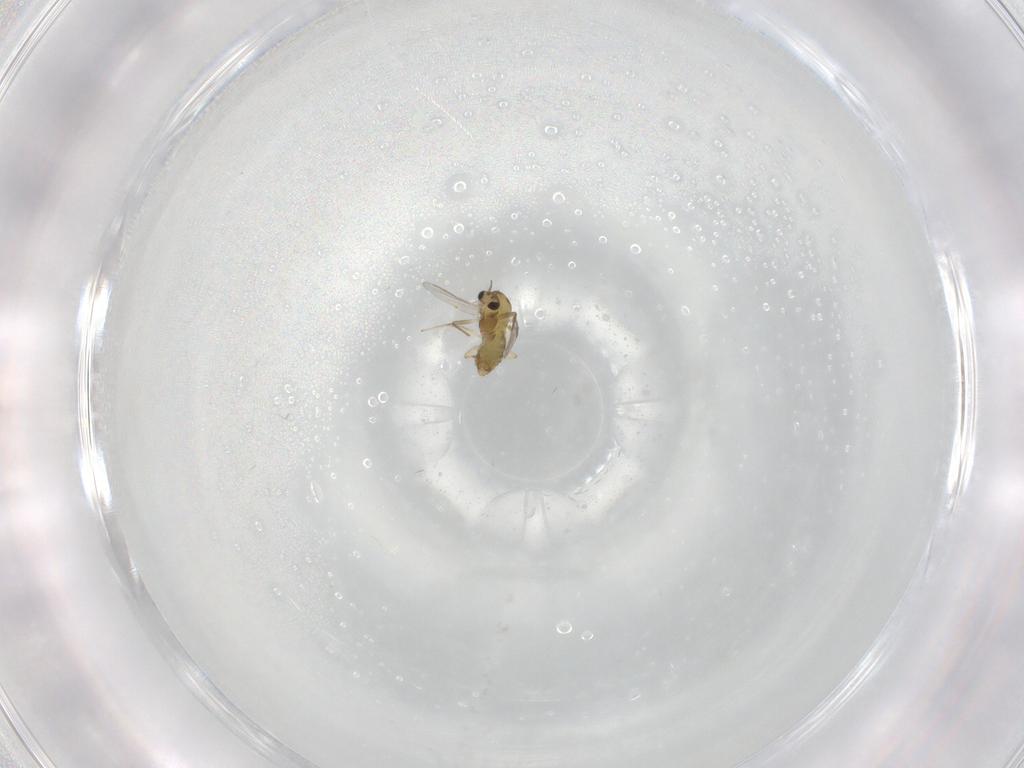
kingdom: Animalia
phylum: Arthropoda
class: Insecta
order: Diptera
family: Chironomidae
